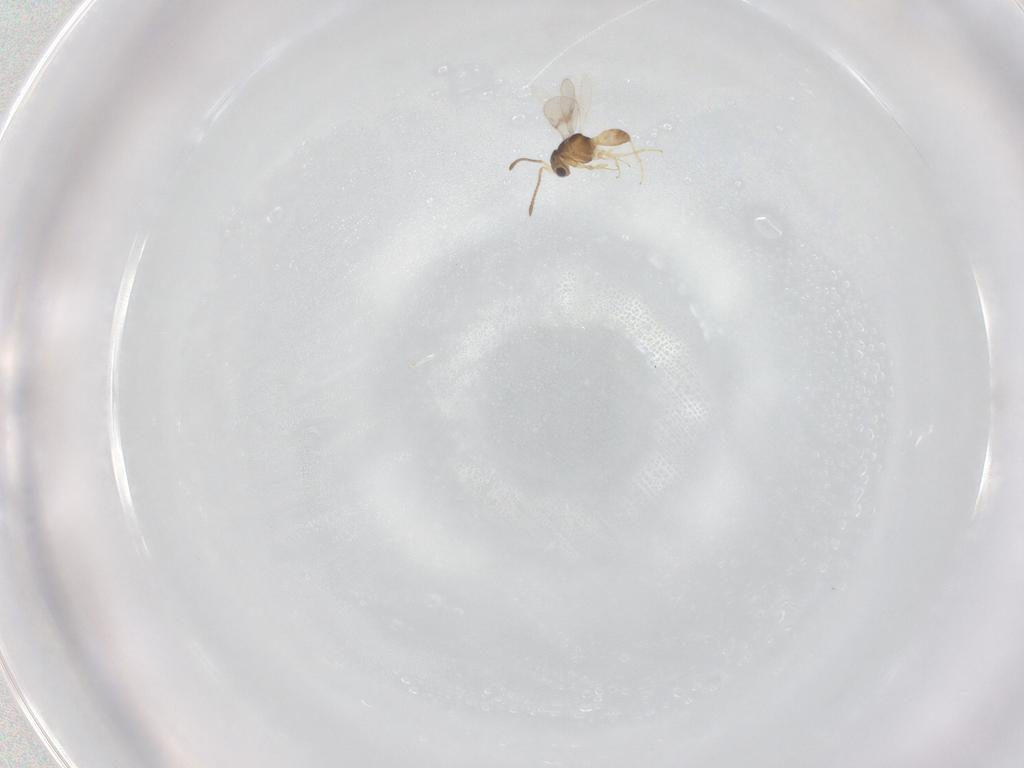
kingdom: Animalia
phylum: Arthropoda
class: Insecta
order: Hymenoptera
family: Scelionidae
